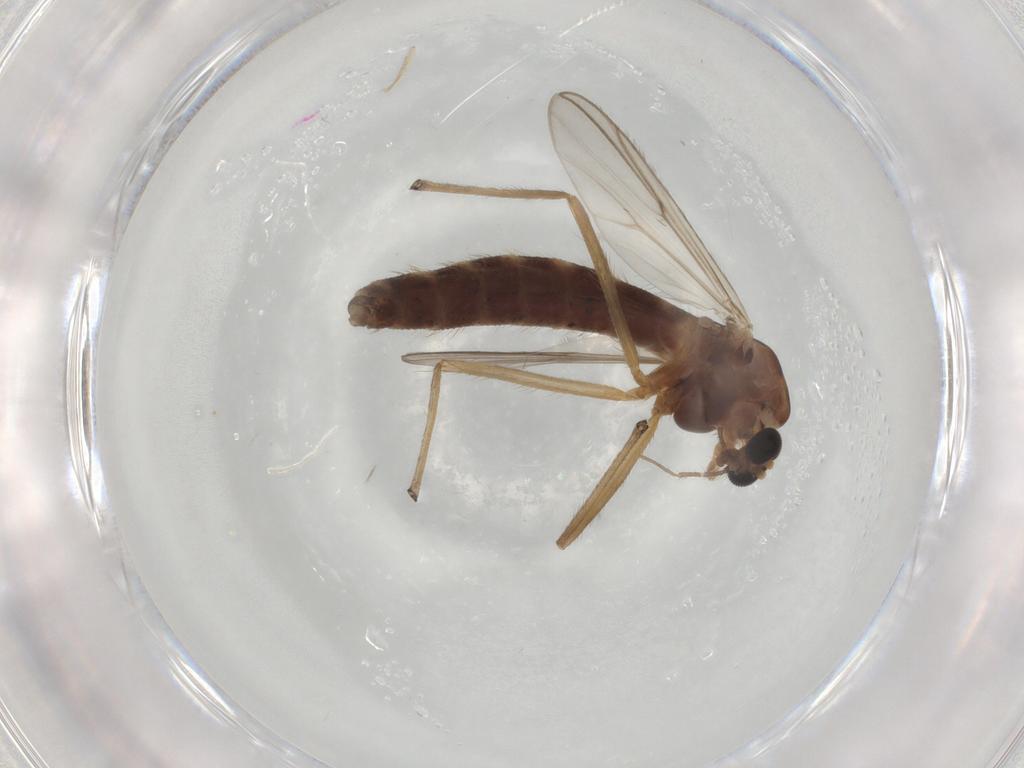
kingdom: Animalia
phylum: Arthropoda
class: Insecta
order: Diptera
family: Chironomidae
